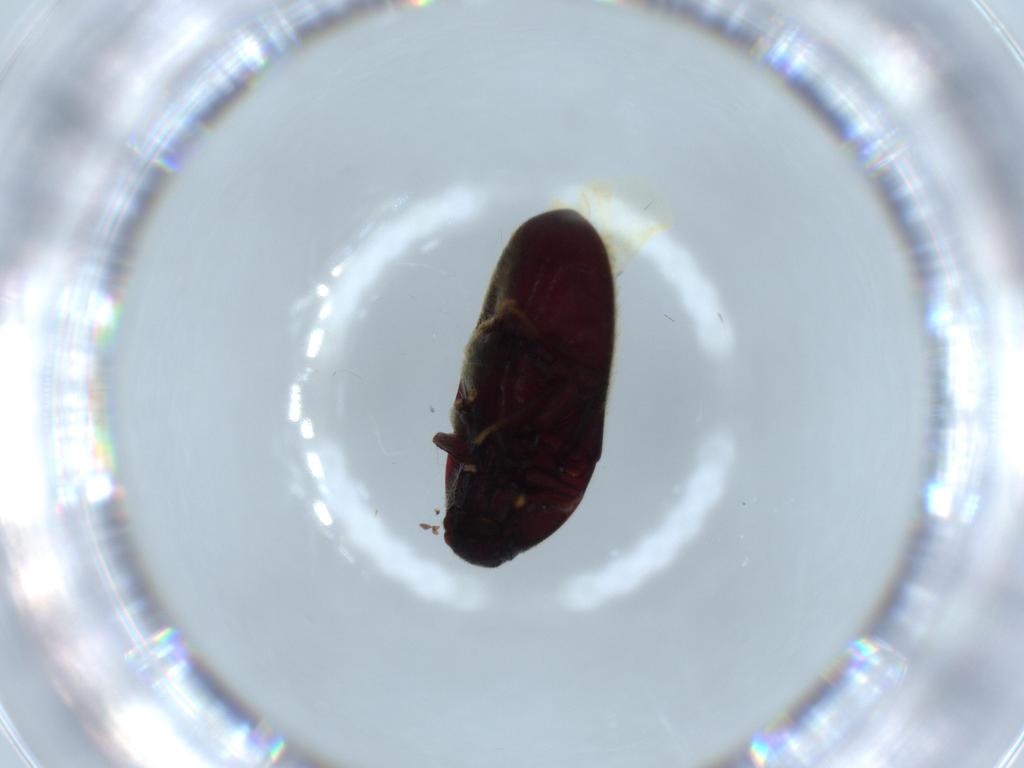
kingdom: Animalia
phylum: Arthropoda
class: Insecta
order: Coleoptera
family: Throscidae
